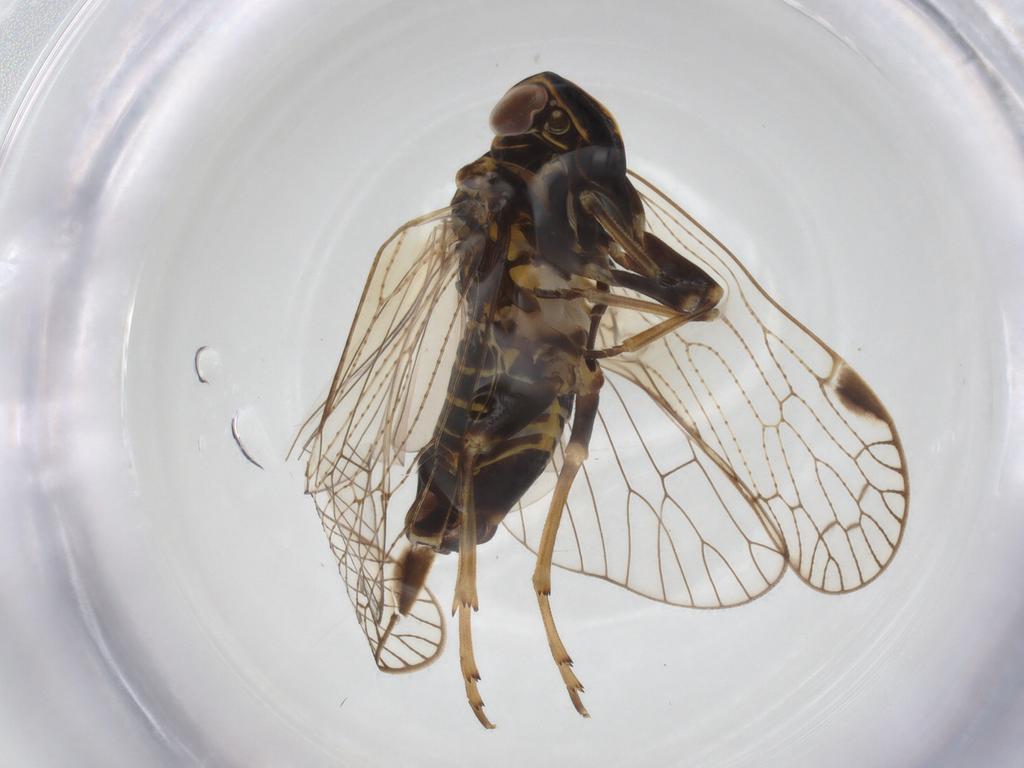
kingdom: Animalia
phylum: Arthropoda
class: Insecta
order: Hemiptera
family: Cixiidae
